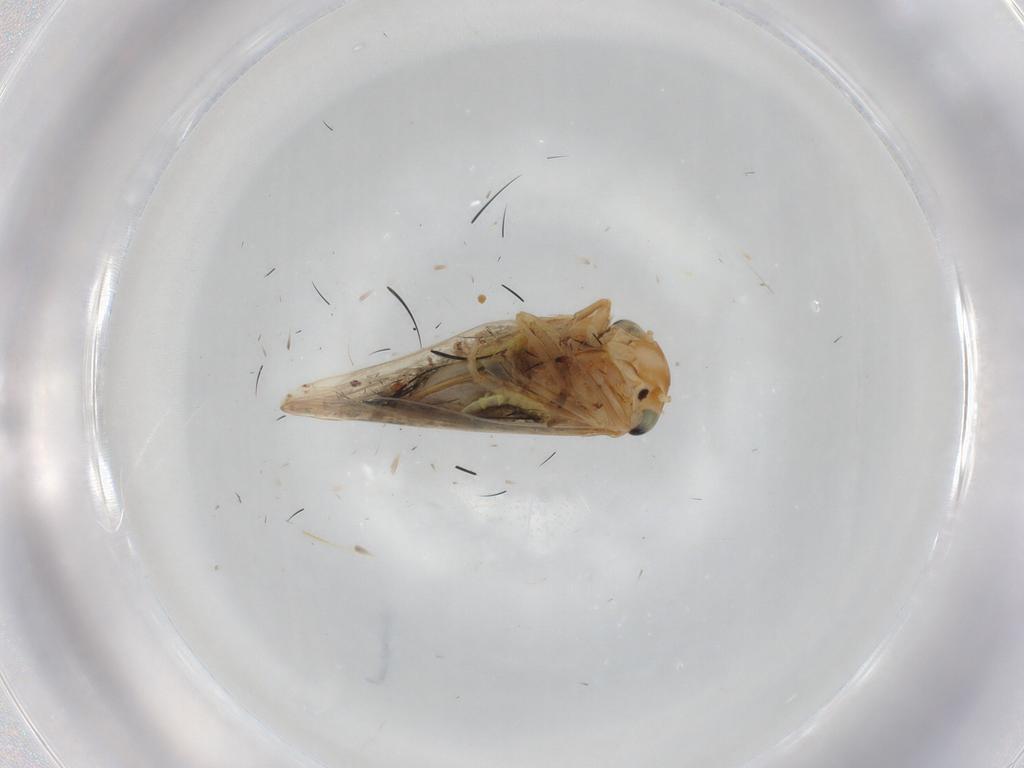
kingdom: Animalia
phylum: Arthropoda
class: Insecta
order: Hemiptera
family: Cicadellidae
